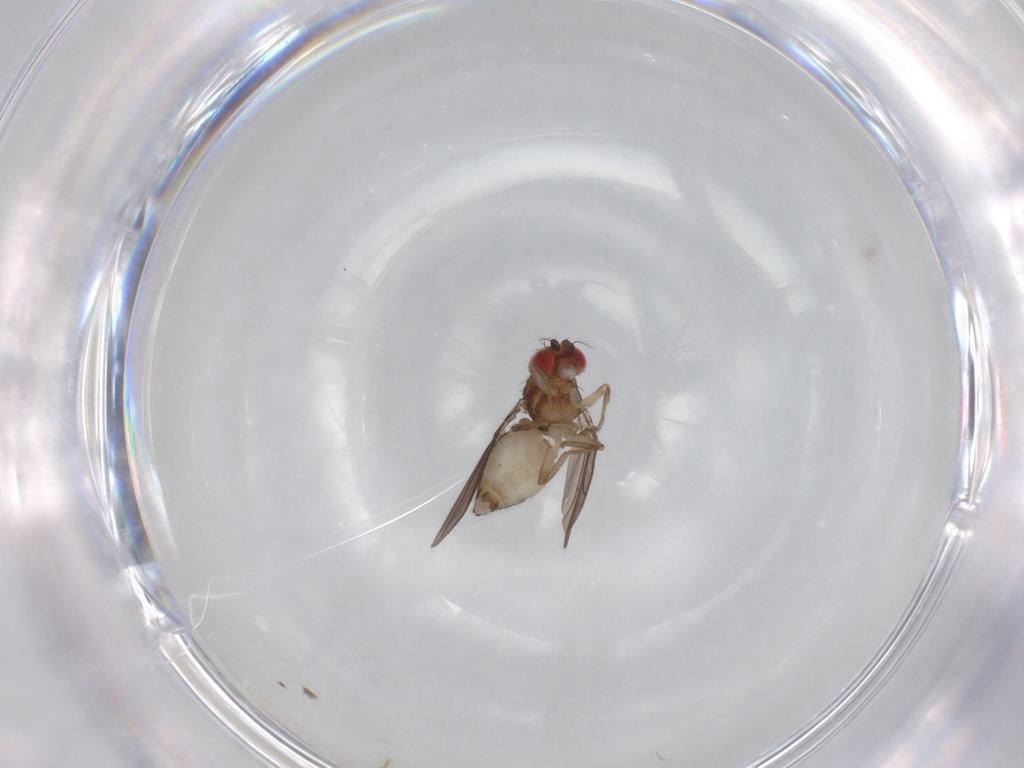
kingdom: Animalia
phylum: Arthropoda
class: Insecta
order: Diptera
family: Drosophilidae
